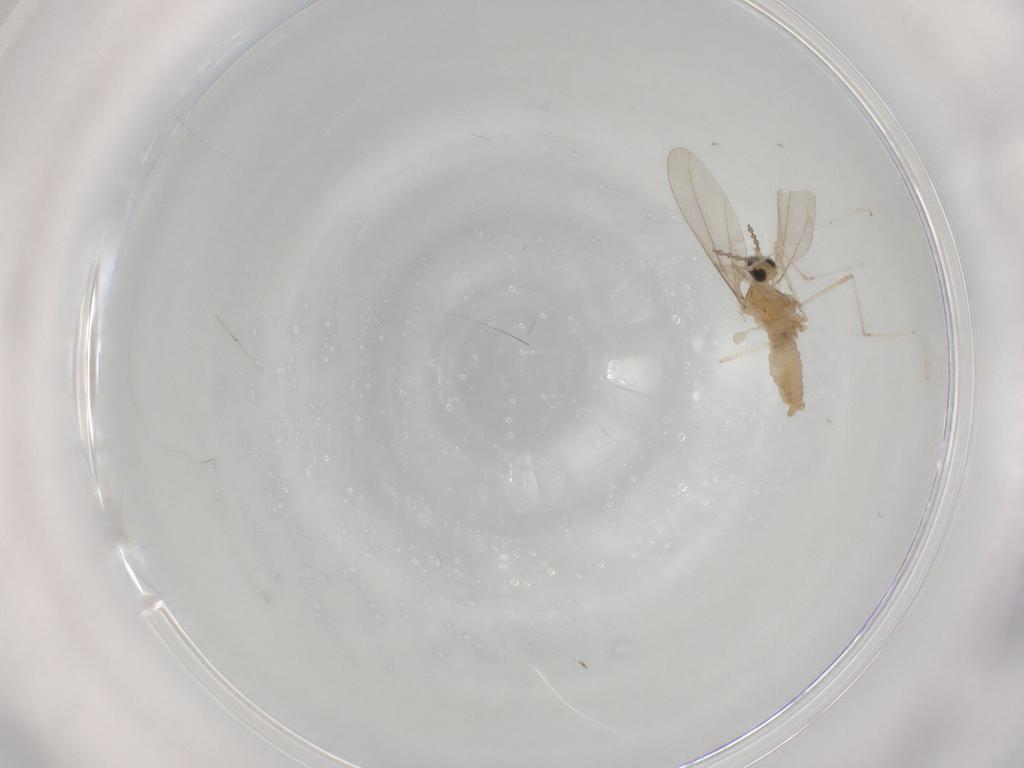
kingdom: Animalia
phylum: Arthropoda
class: Insecta
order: Diptera
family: Cecidomyiidae
